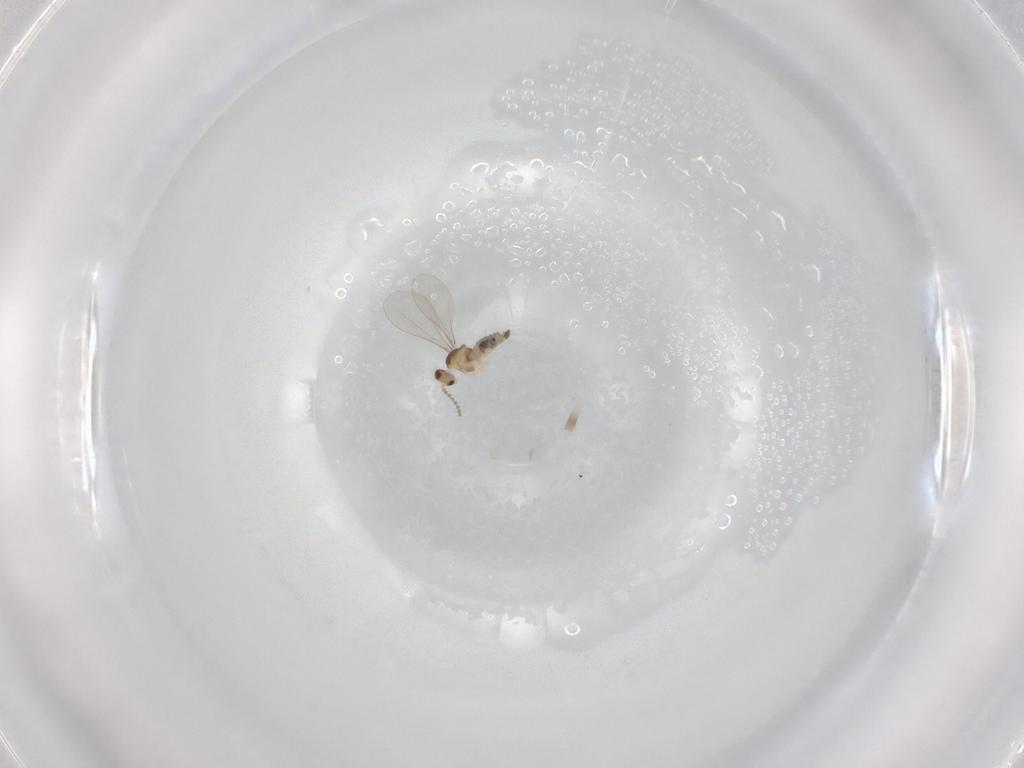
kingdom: Animalia
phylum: Arthropoda
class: Insecta
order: Diptera
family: Cecidomyiidae
